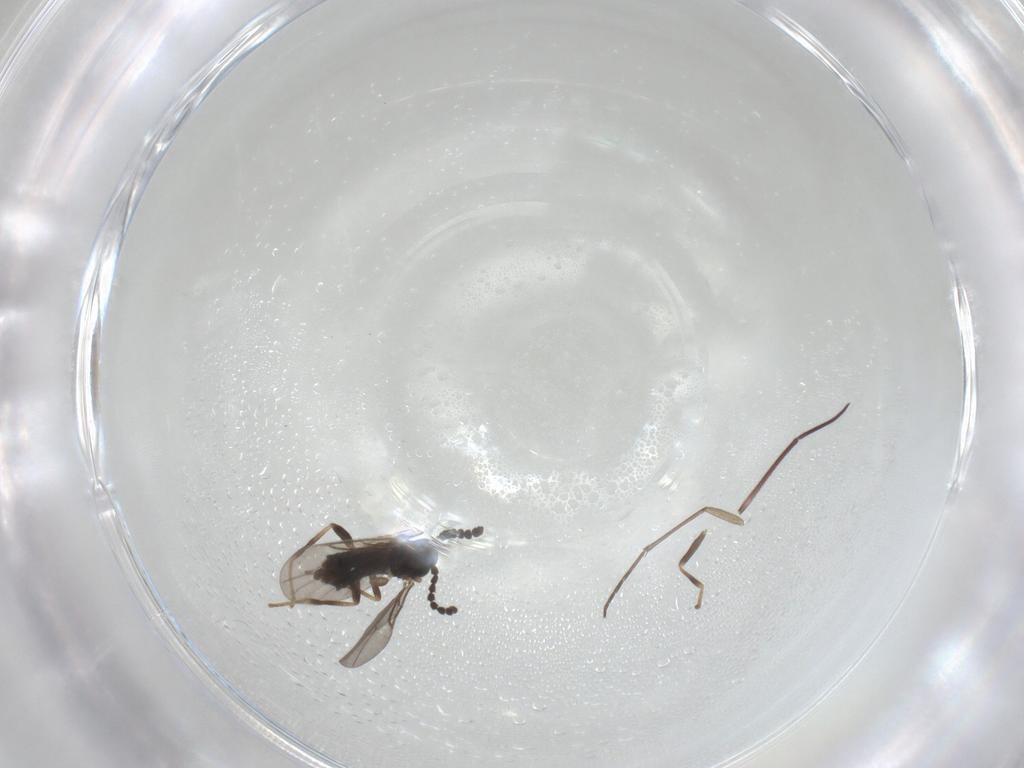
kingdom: Animalia
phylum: Arthropoda
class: Insecta
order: Diptera
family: Scatopsidae
